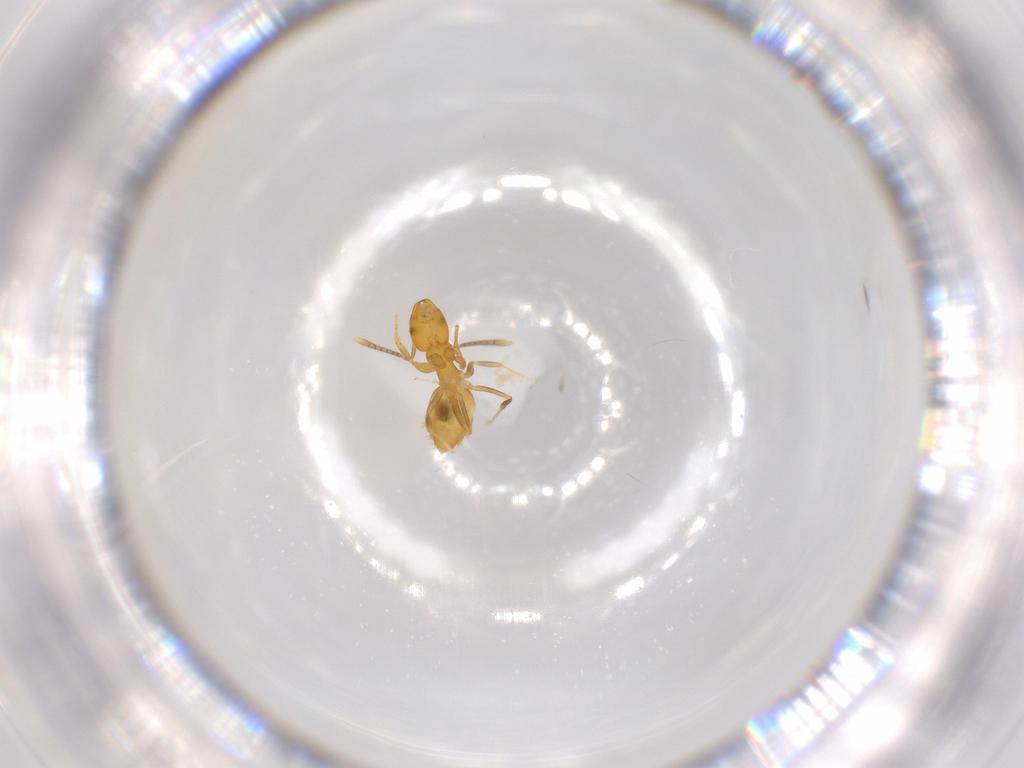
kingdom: Animalia
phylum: Arthropoda
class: Insecta
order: Hymenoptera
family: Formicidae
